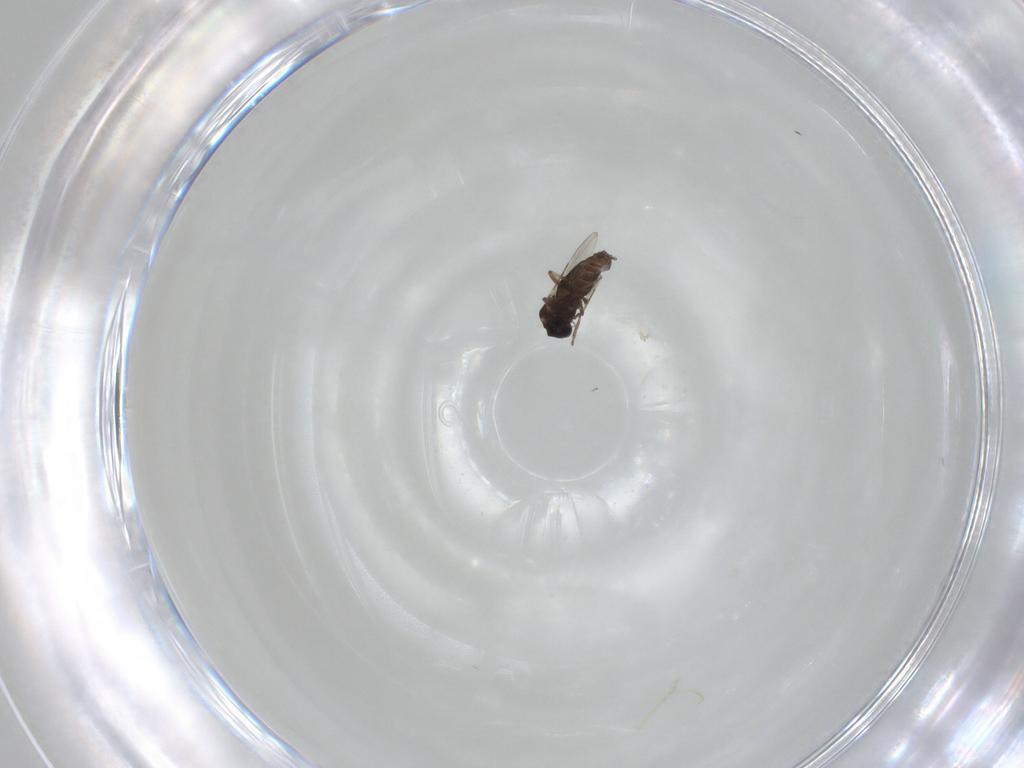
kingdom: Animalia
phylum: Arthropoda
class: Insecta
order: Diptera
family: Ceratopogonidae
